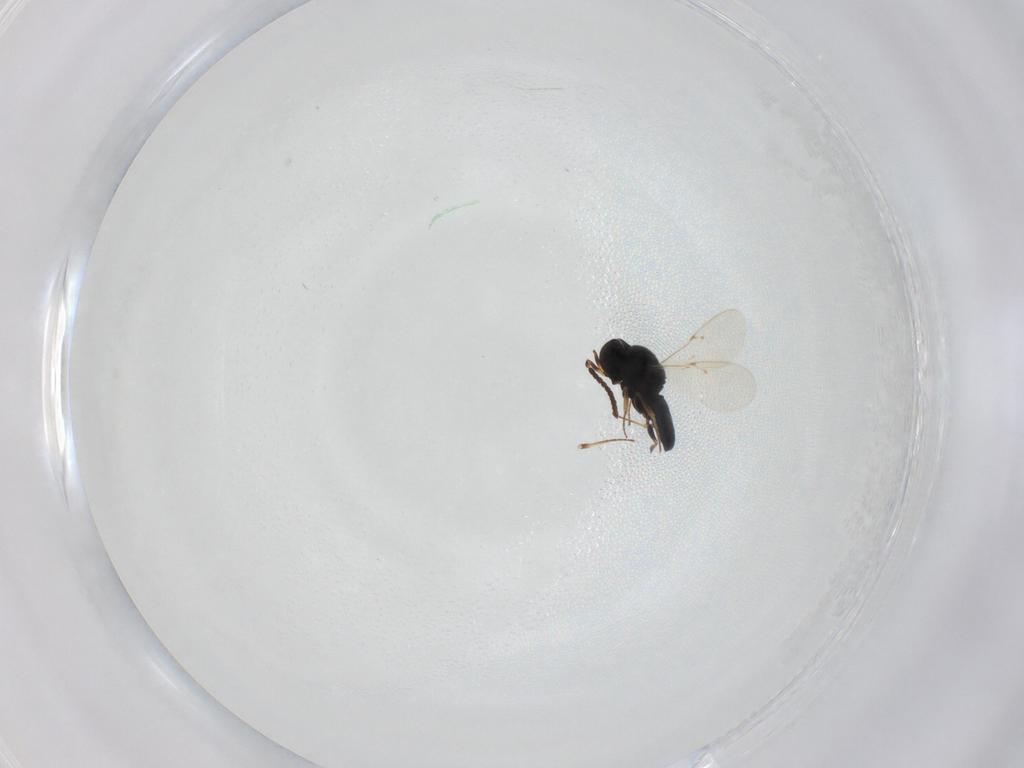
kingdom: Animalia
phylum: Arthropoda
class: Insecta
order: Hymenoptera
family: Scelionidae
